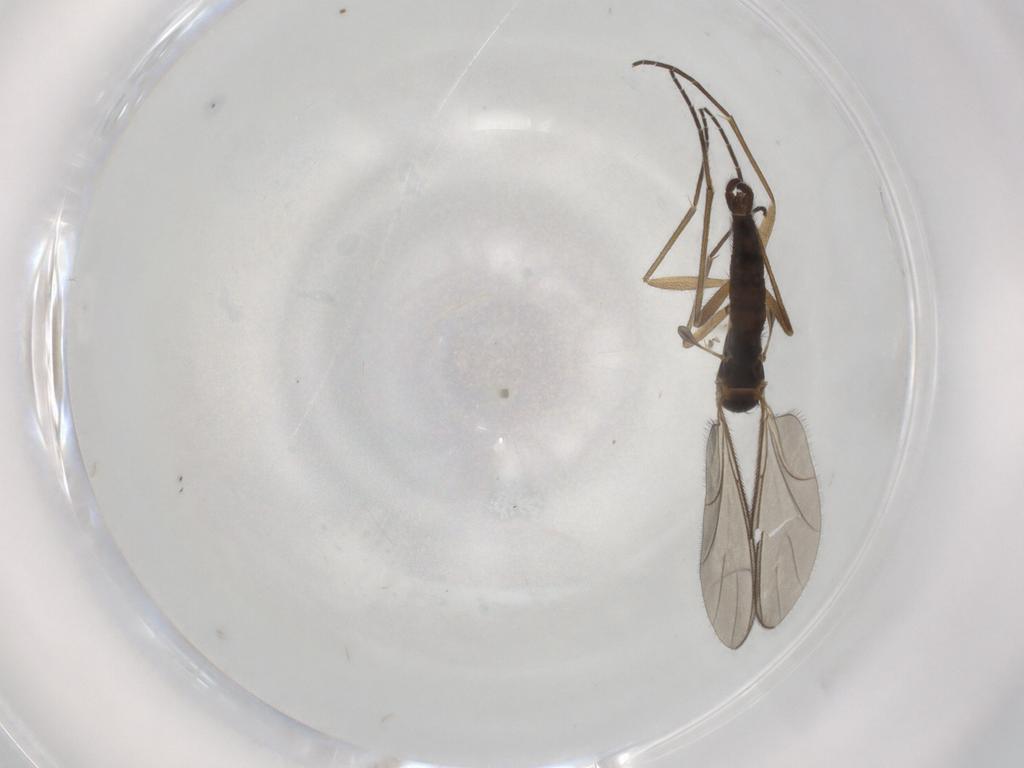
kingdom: Animalia
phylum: Arthropoda
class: Insecta
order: Diptera
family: Sciaridae
